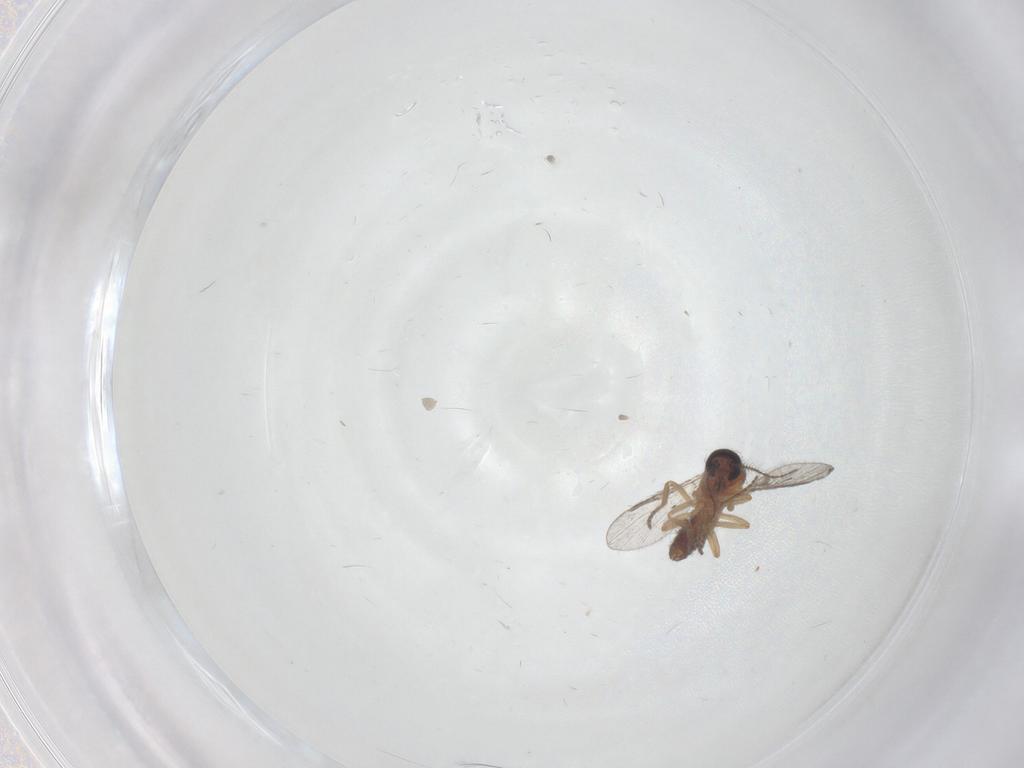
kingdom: Animalia
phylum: Arthropoda
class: Insecta
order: Diptera
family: Ceratopogonidae
